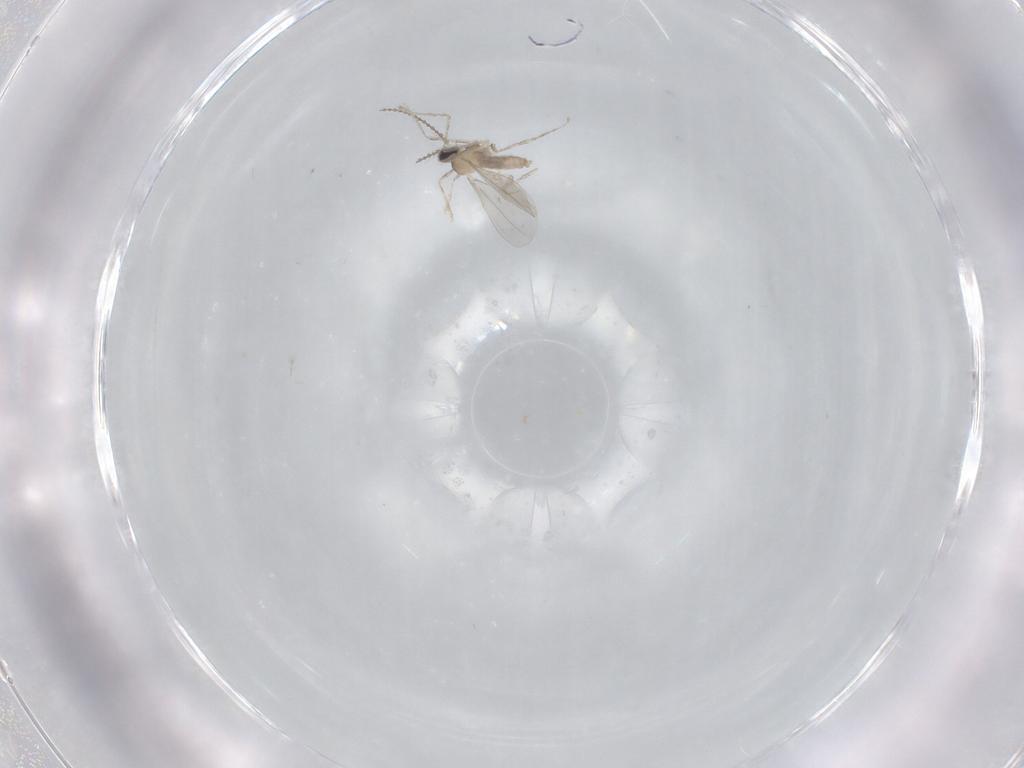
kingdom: Animalia
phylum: Arthropoda
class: Insecta
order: Diptera
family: Cecidomyiidae
